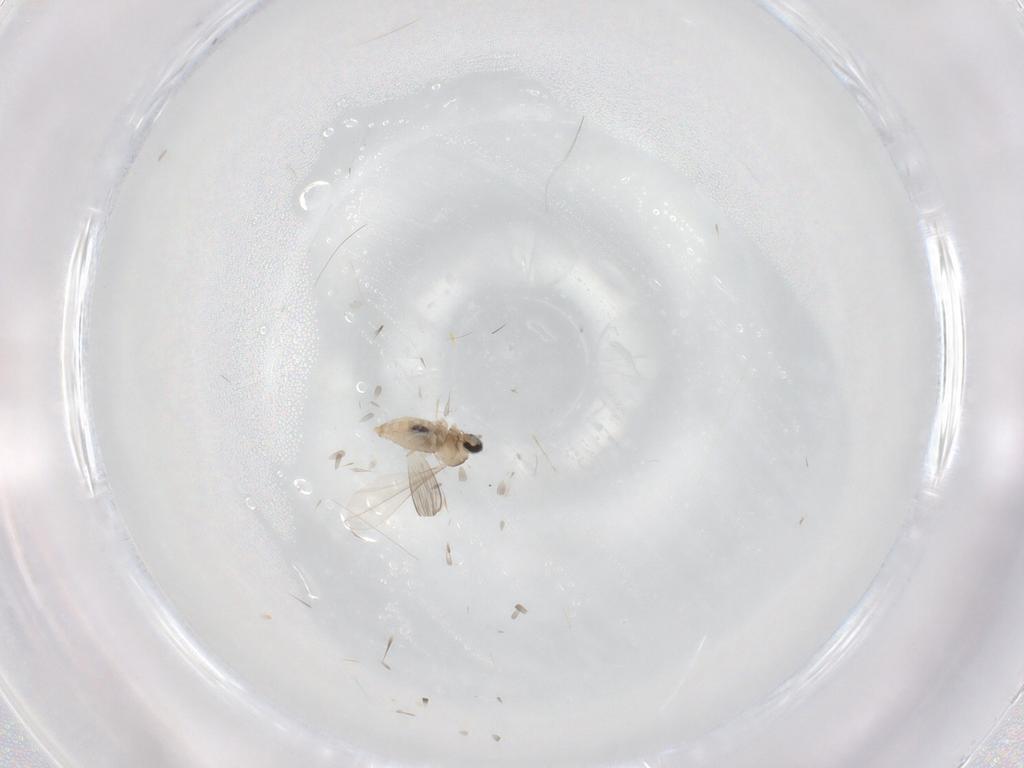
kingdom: Animalia
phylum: Arthropoda
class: Insecta
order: Diptera
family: Cecidomyiidae
